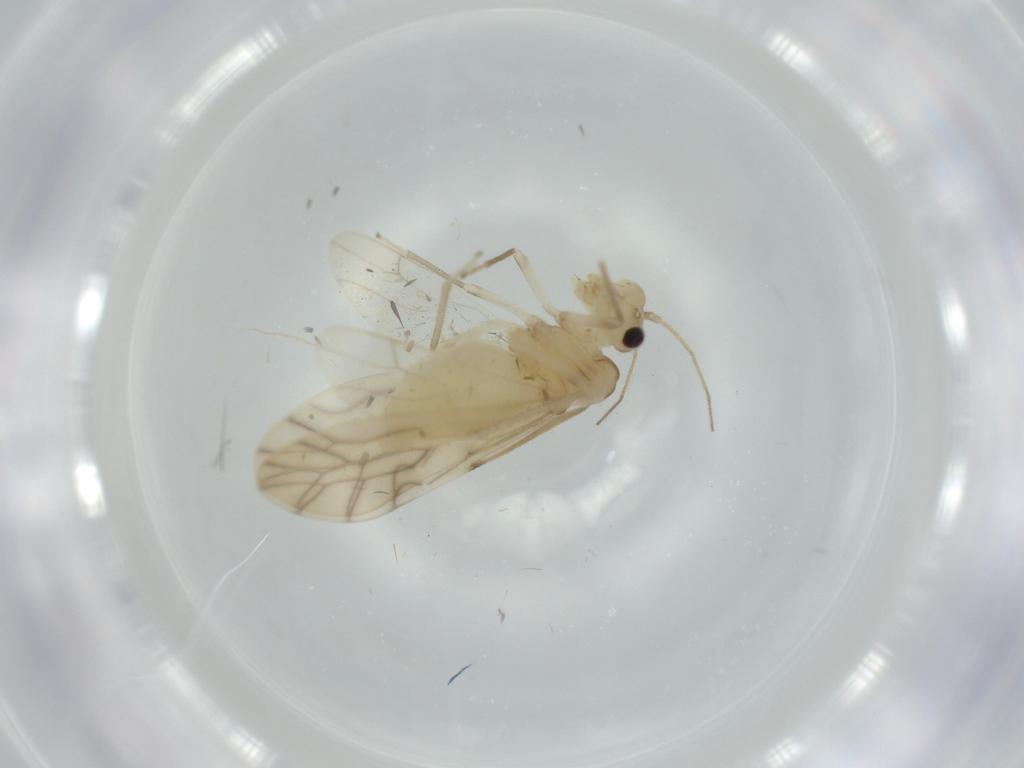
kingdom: Animalia
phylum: Arthropoda
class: Insecta
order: Psocodea
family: Caeciliusidae
